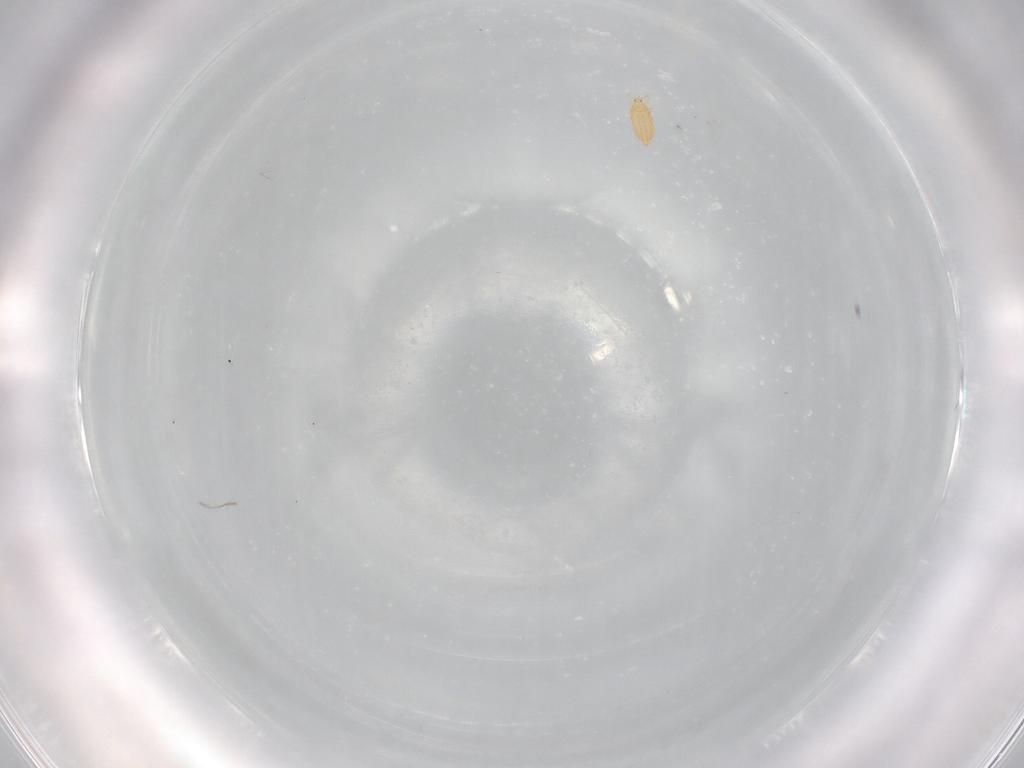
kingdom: Animalia
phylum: Arthropoda
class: Insecta
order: Thysanoptera
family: Thripidae
